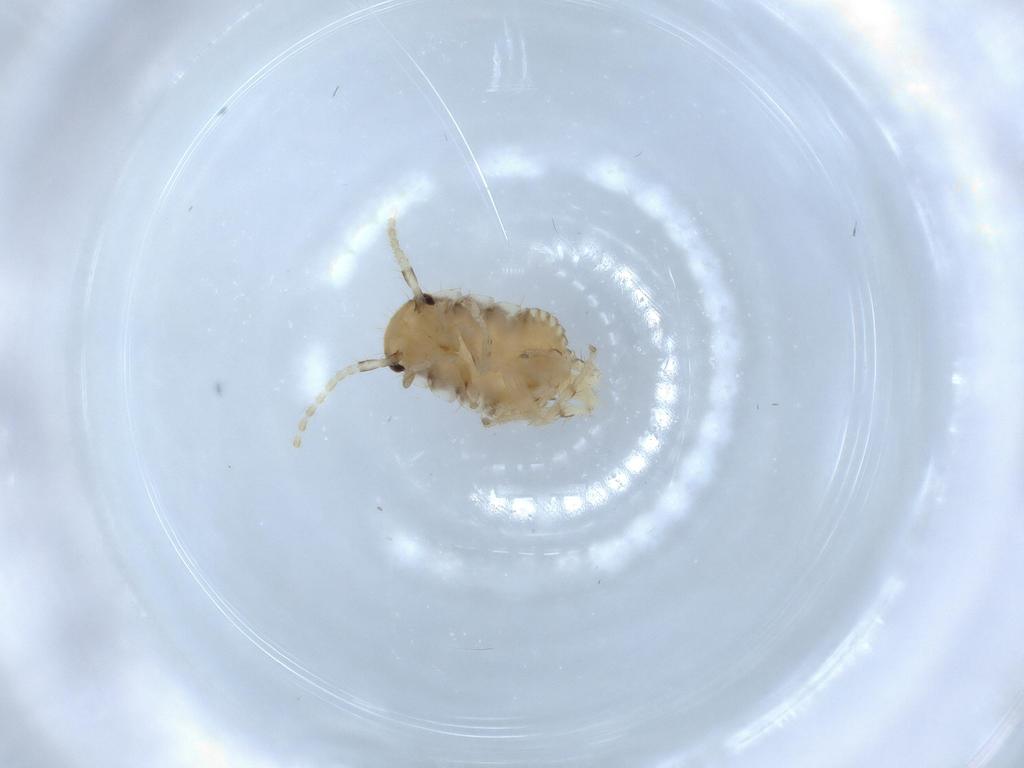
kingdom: Animalia
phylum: Arthropoda
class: Insecta
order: Blattodea
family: Ectobiidae
